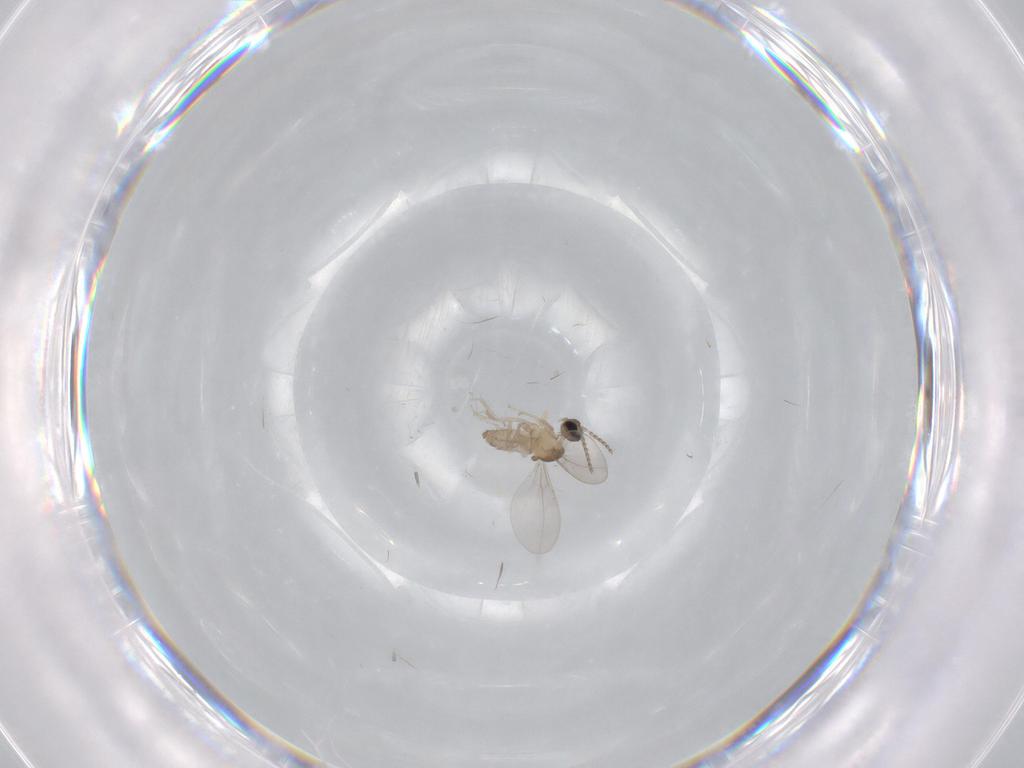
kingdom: Animalia
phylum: Arthropoda
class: Insecta
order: Diptera
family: Cecidomyiidae
